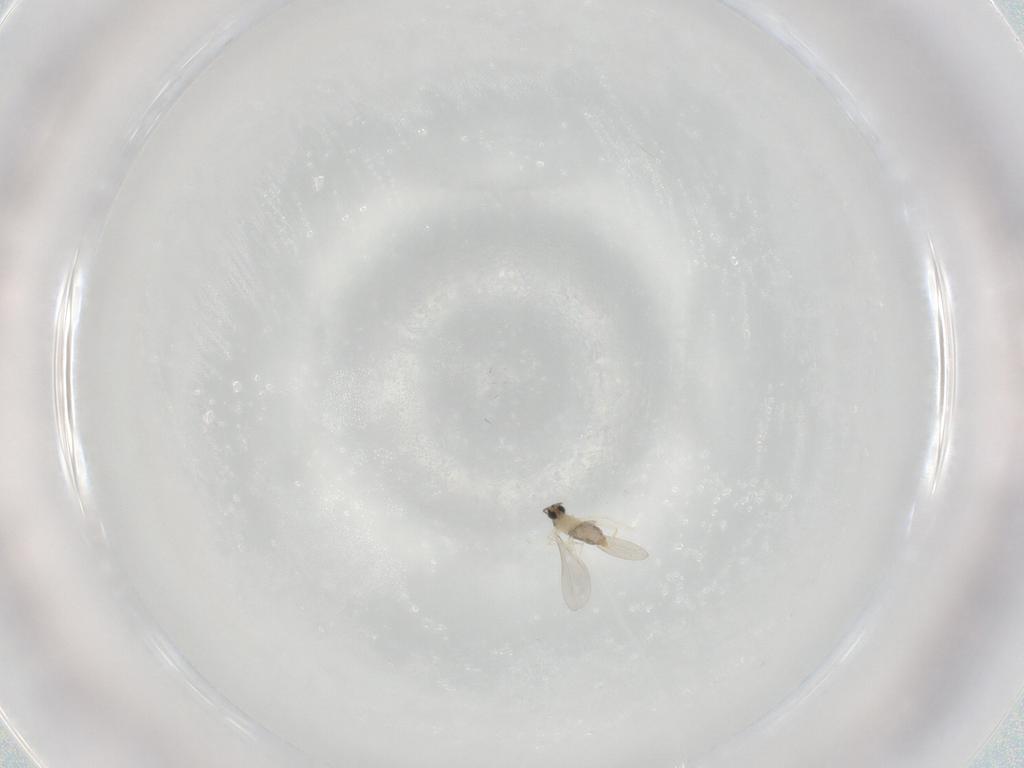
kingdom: Animalia
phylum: Arthropoda
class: Insecta
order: Diptera
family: Cecidomyiidae
